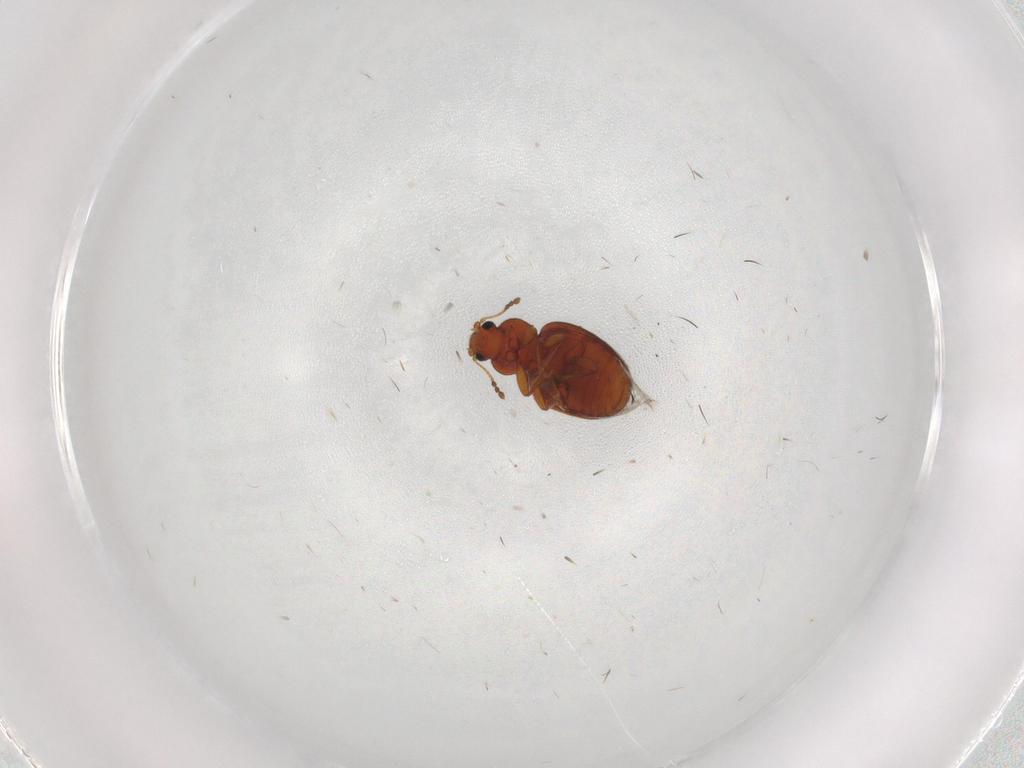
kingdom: Animalia
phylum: Arthropoda
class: Insecta
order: Coleoptera
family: Latridiidae
